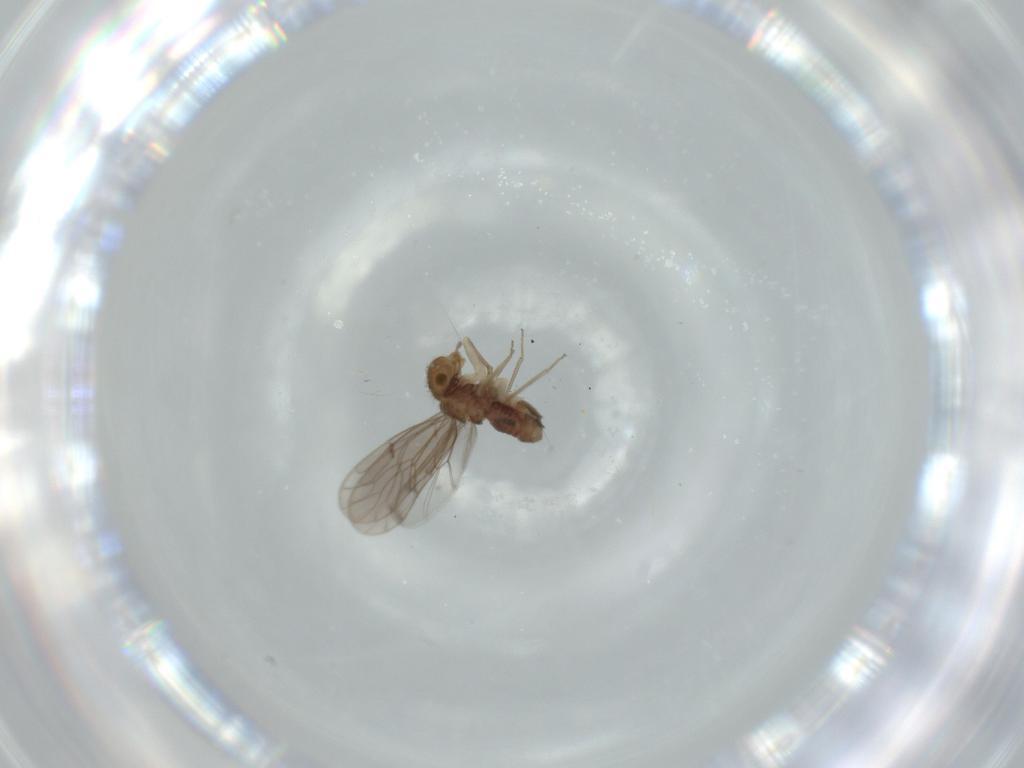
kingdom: Animalia
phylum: Arthropoda
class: Insecta
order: Psocodea
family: Ectopsocidae
